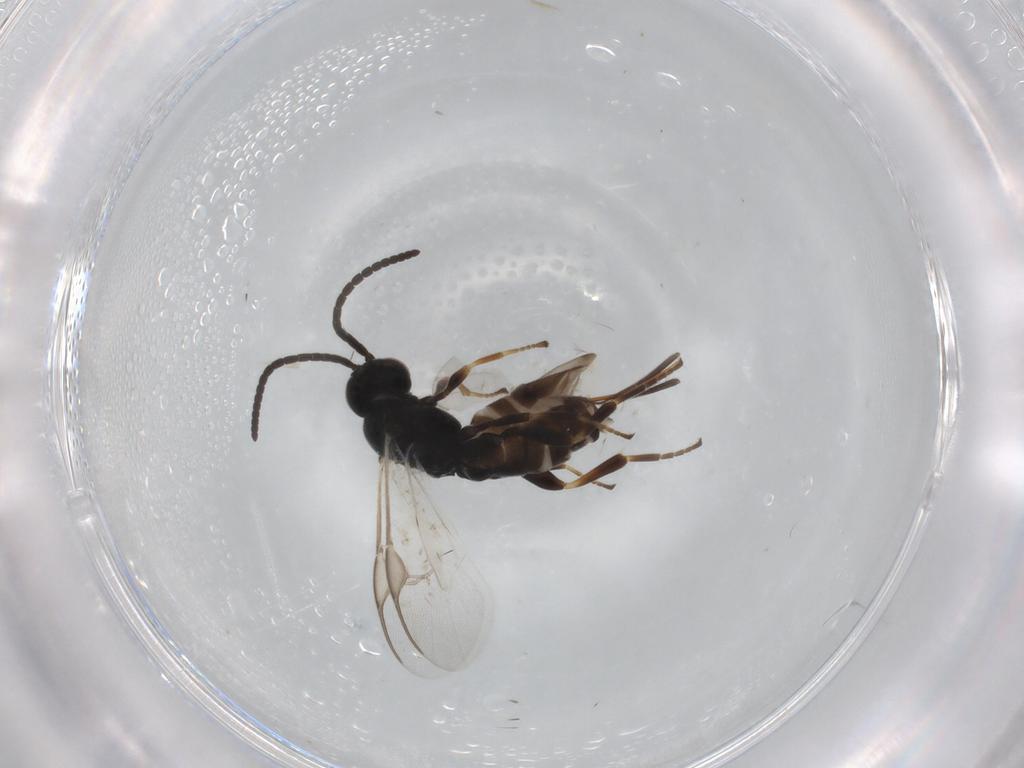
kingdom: Animalia
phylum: Arthropoda
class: Insecta
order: Hymenoptera
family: Braconidae
